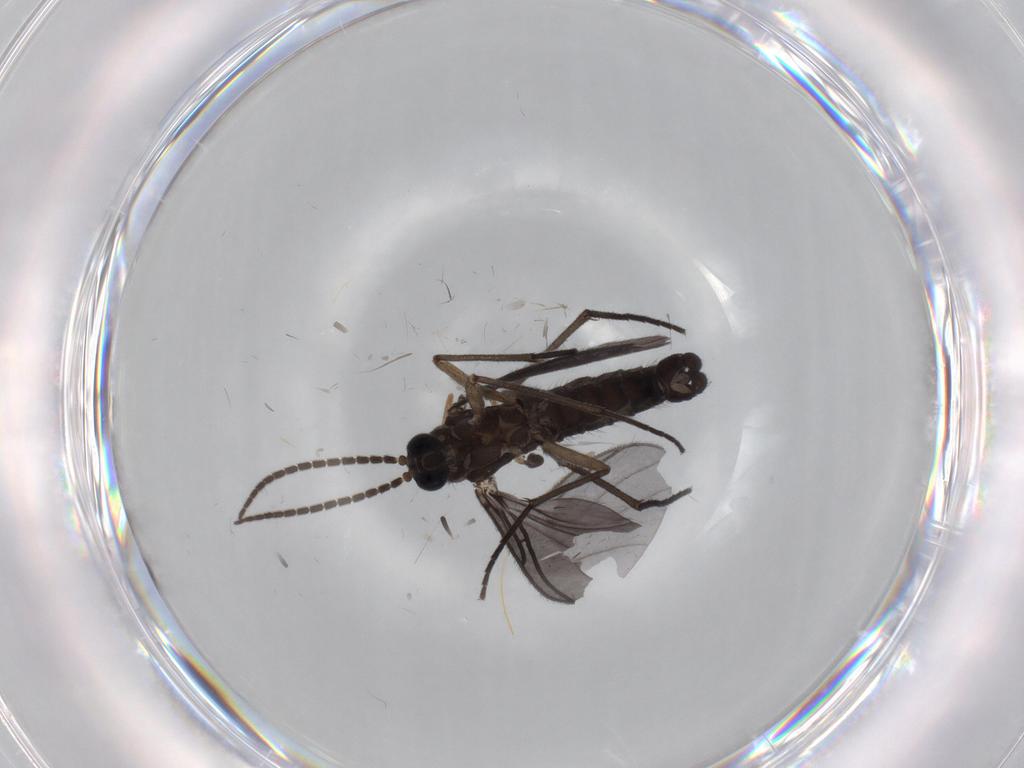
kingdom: Animalia
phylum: Arthropoda
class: Insecta
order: Diptera
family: Sciaridae
